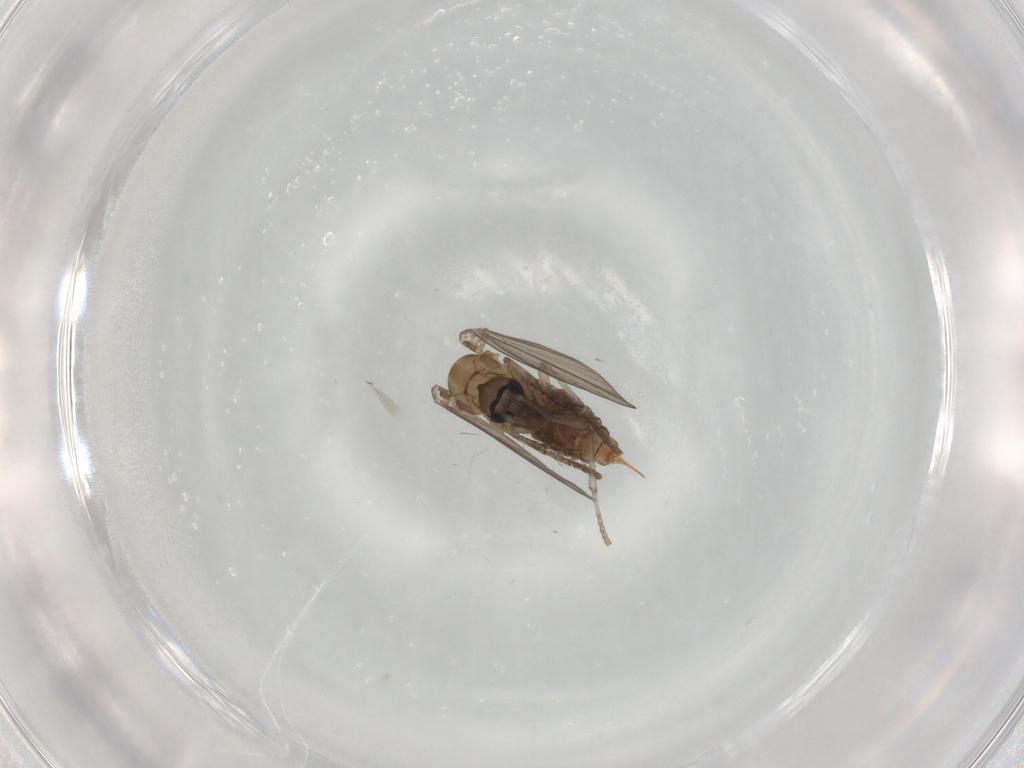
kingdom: Animalia
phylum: Arthropoda
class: Insecta
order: Diptera
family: Psychodidae
